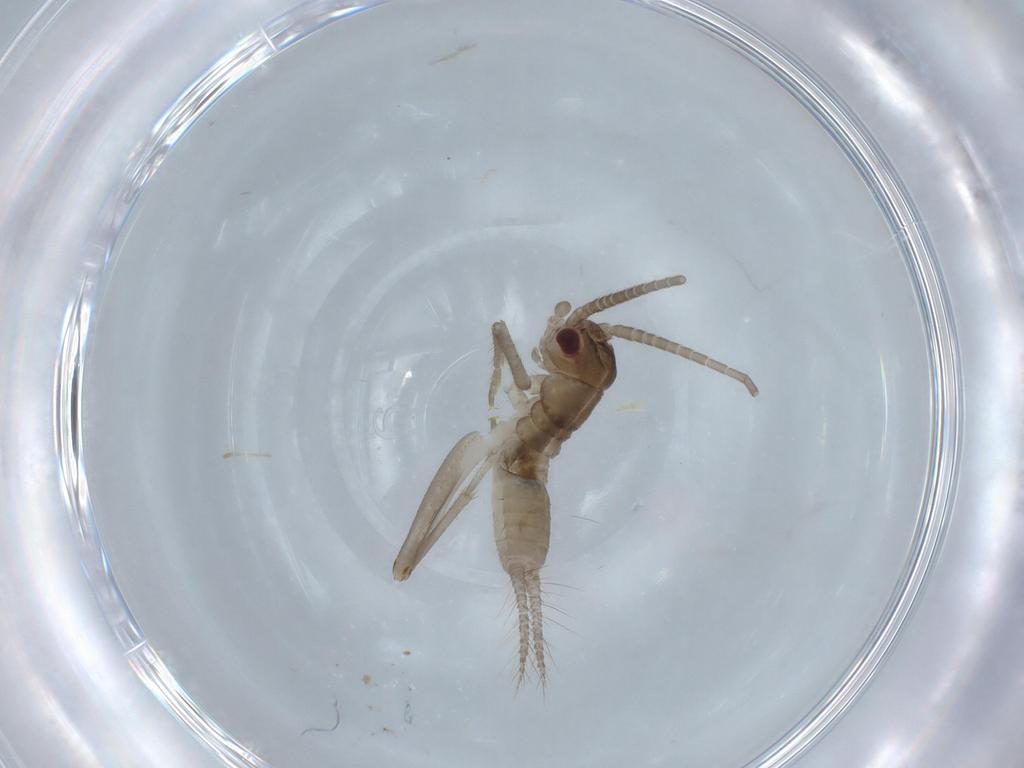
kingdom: Animalia
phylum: Arthropoda
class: Insecta
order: Orthoptera
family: Gryllidae
